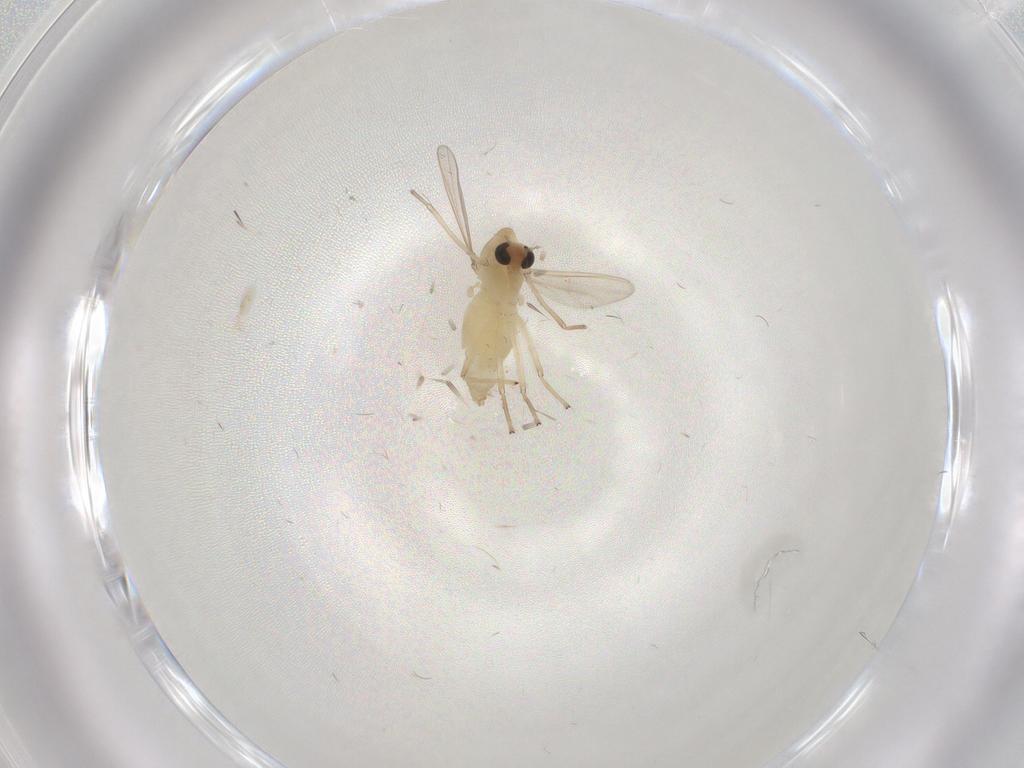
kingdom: Animalia
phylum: Arthropoda
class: Insecta
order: Diptera
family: Chironomidae
